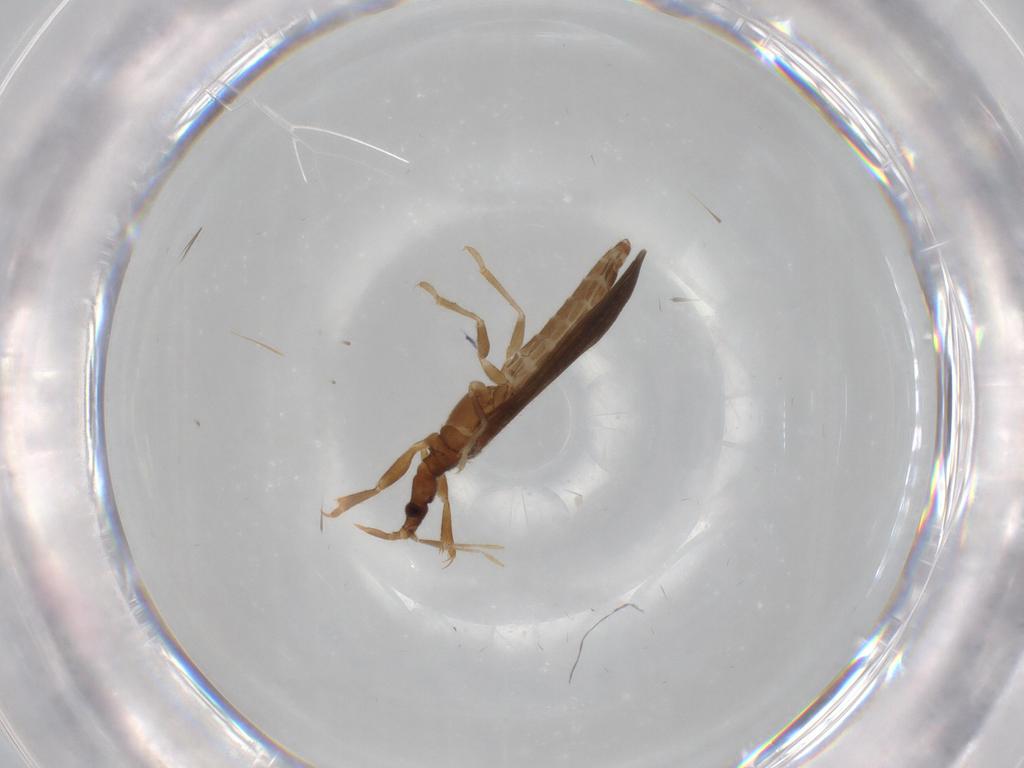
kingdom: Animalia
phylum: Arthropoda
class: Insecta
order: Hemiptera
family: Enicocephalidae
